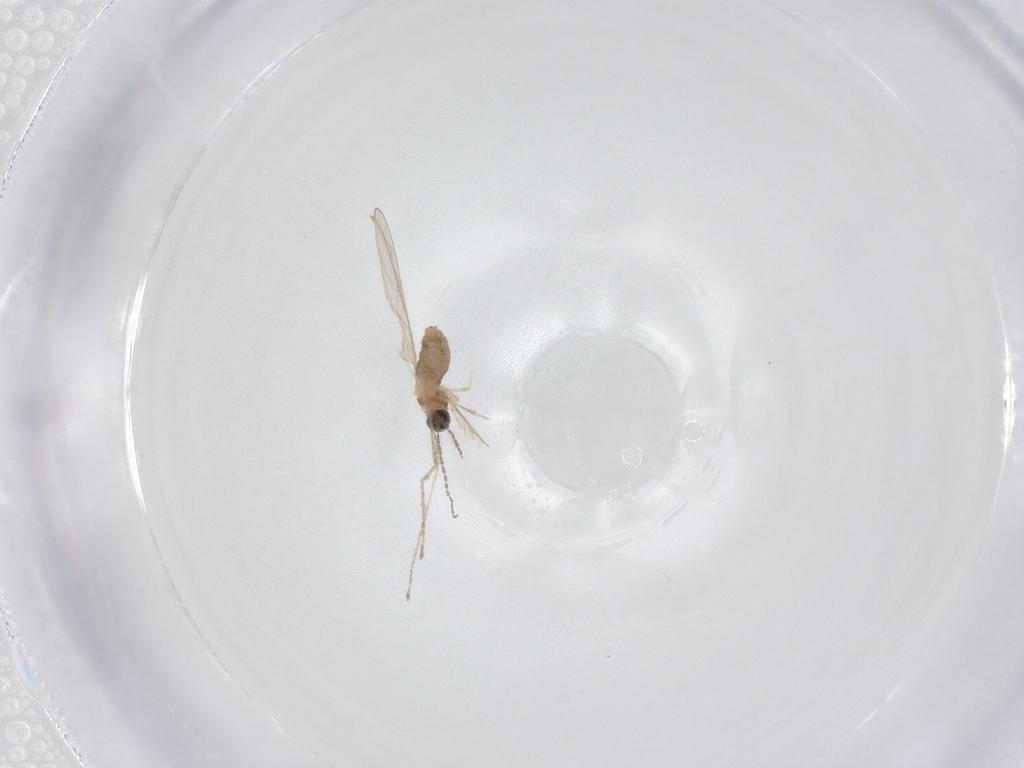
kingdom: Animalia
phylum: Arthropoda
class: Insecta
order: Diptera
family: Cecidomyiidae
